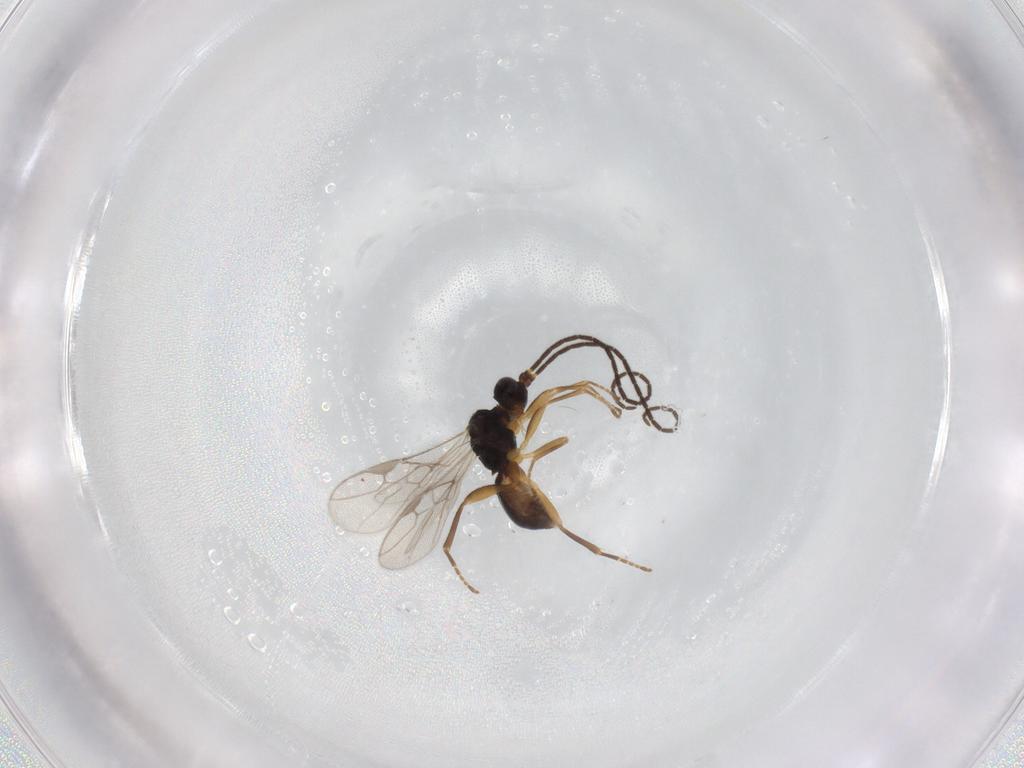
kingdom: Animalia
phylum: Arthropoda
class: Insecta
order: Hymenoptera
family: Braconidae
